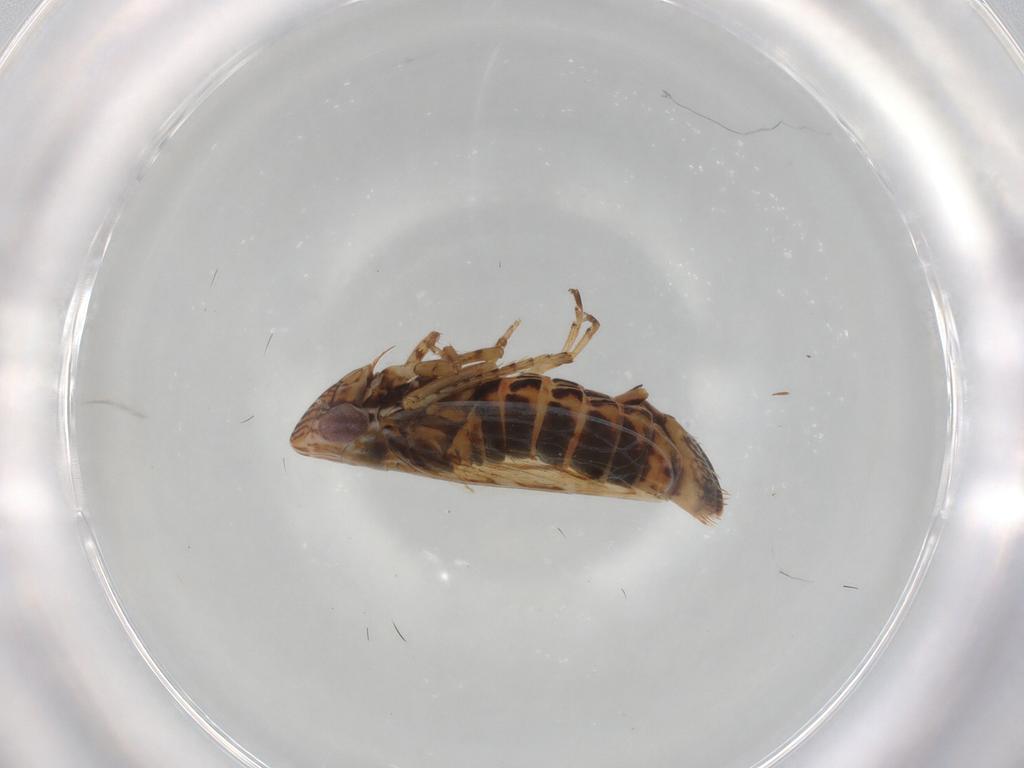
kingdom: Animalia
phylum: Arthropoda
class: Insecta
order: Hemiptera
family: Cicadellidae
